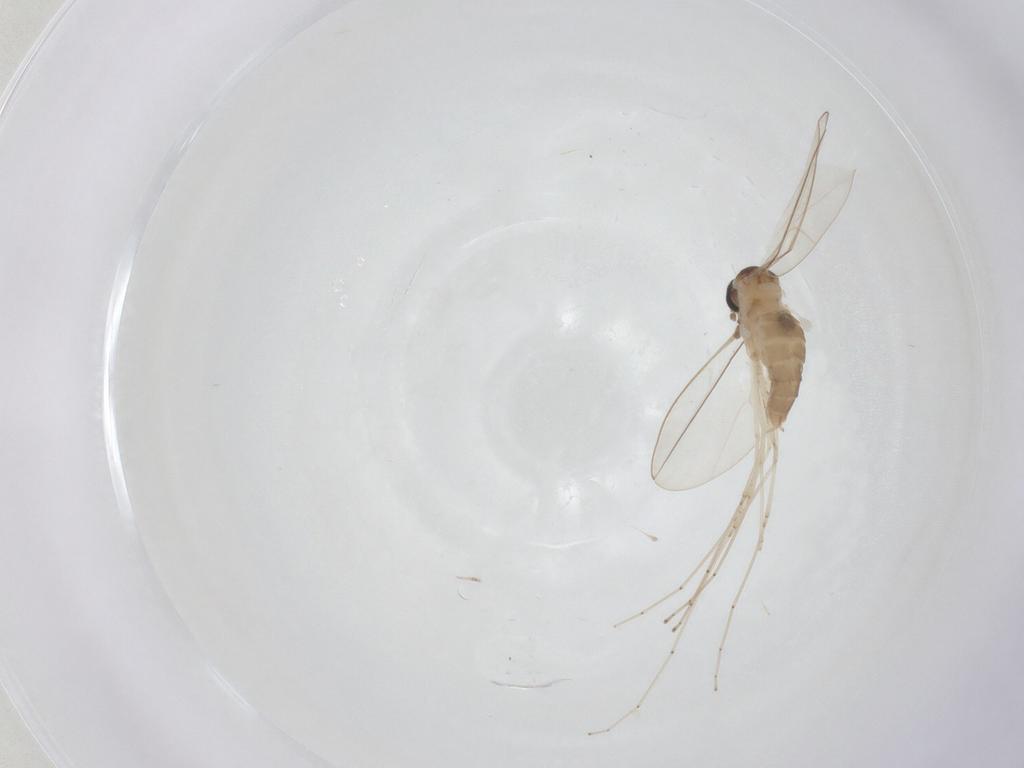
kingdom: Animalia
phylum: Arthropoda
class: Insecta
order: Diptera
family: Cecidomyiidae
